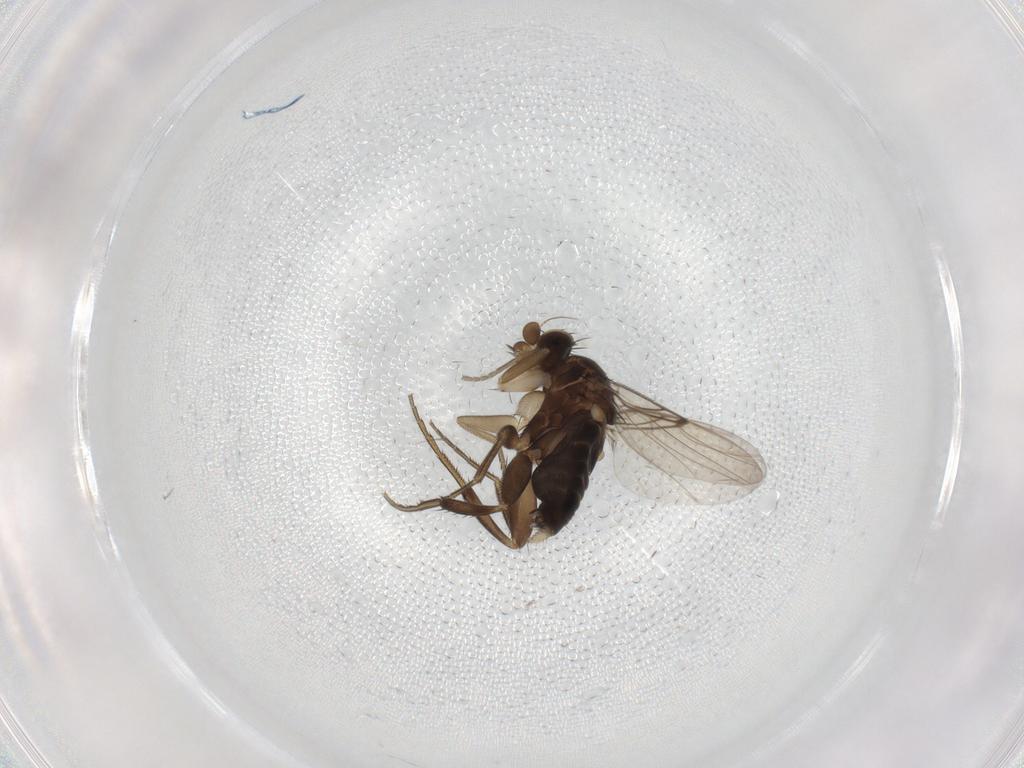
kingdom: Animalia
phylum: Arthropoda
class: Insecta
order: Diptera
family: Phoridae
